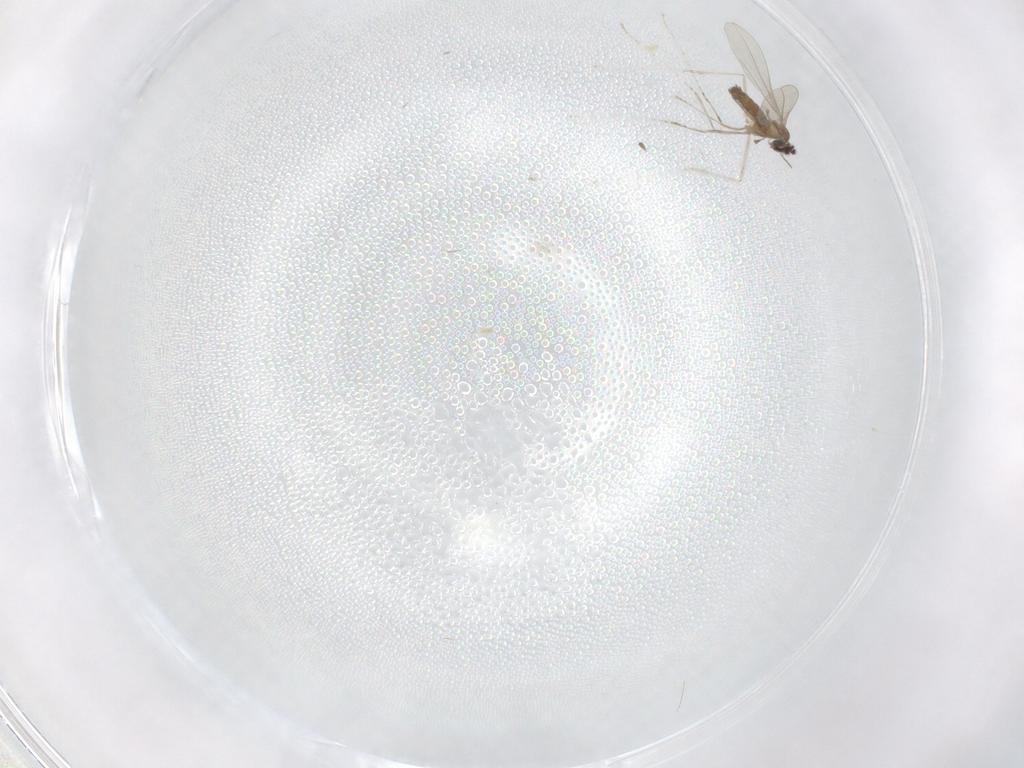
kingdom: Animalia
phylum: Arthropoda
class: Insecta
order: Diptera
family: Cecidomyiidae
